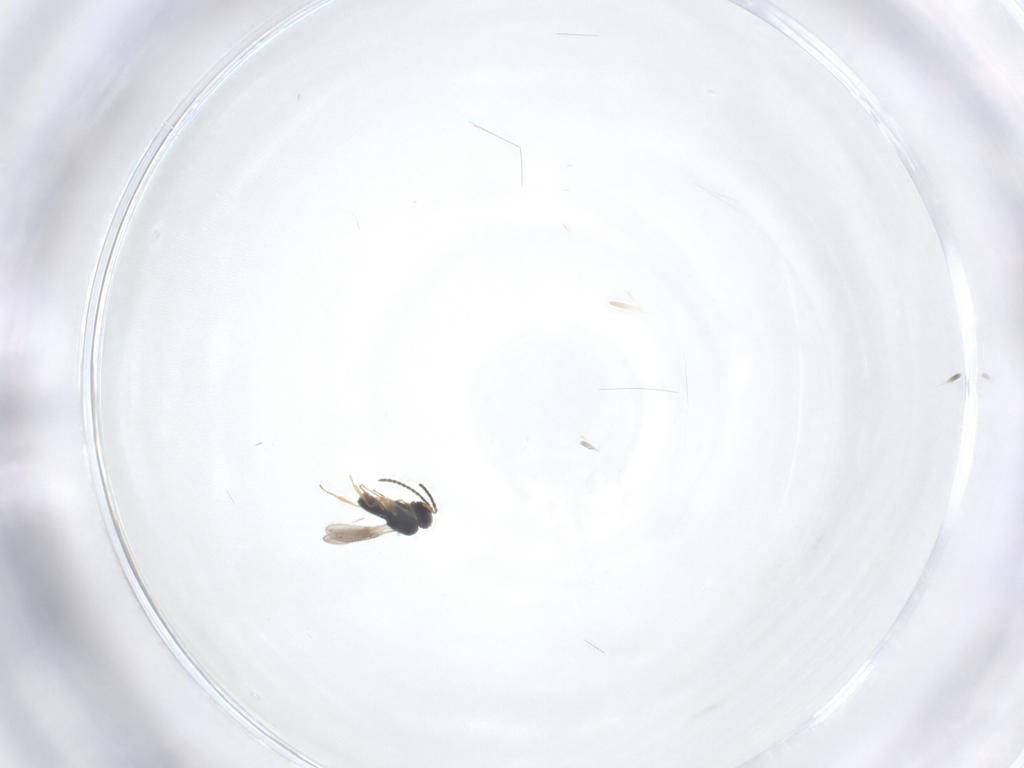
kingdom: Animalia
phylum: Arthropoda
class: Insecta
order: Hymenoptera
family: Scelionidae
